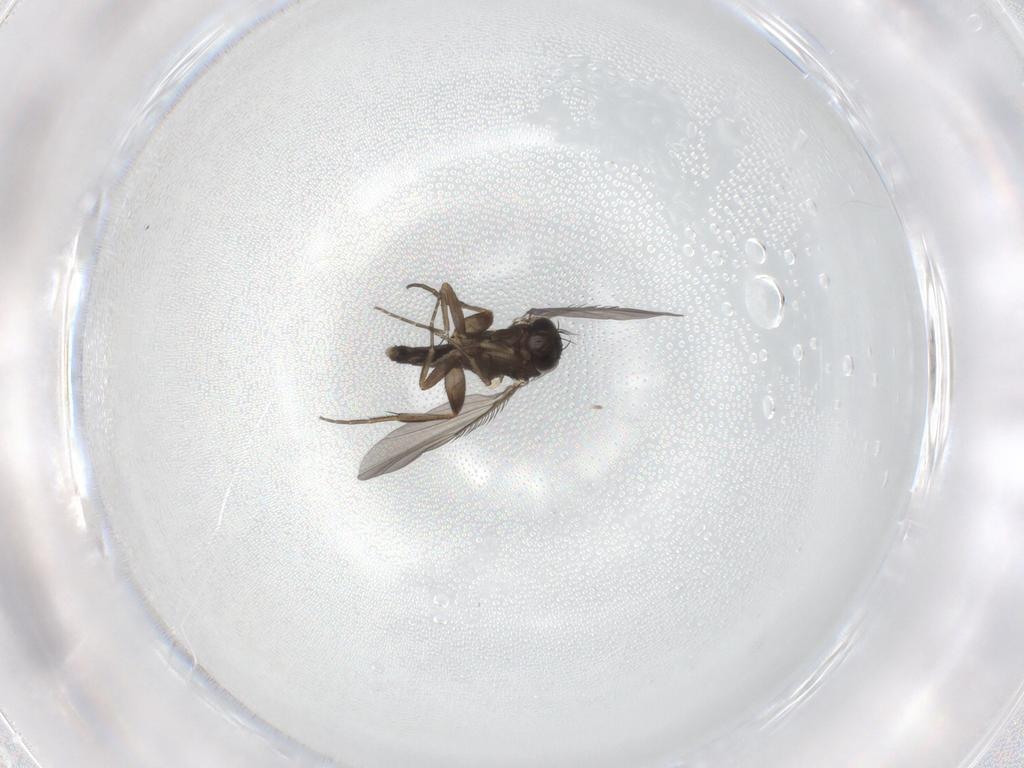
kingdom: Animalia
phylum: Arthropoda
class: Insecta
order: Diptera
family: Phoridae
